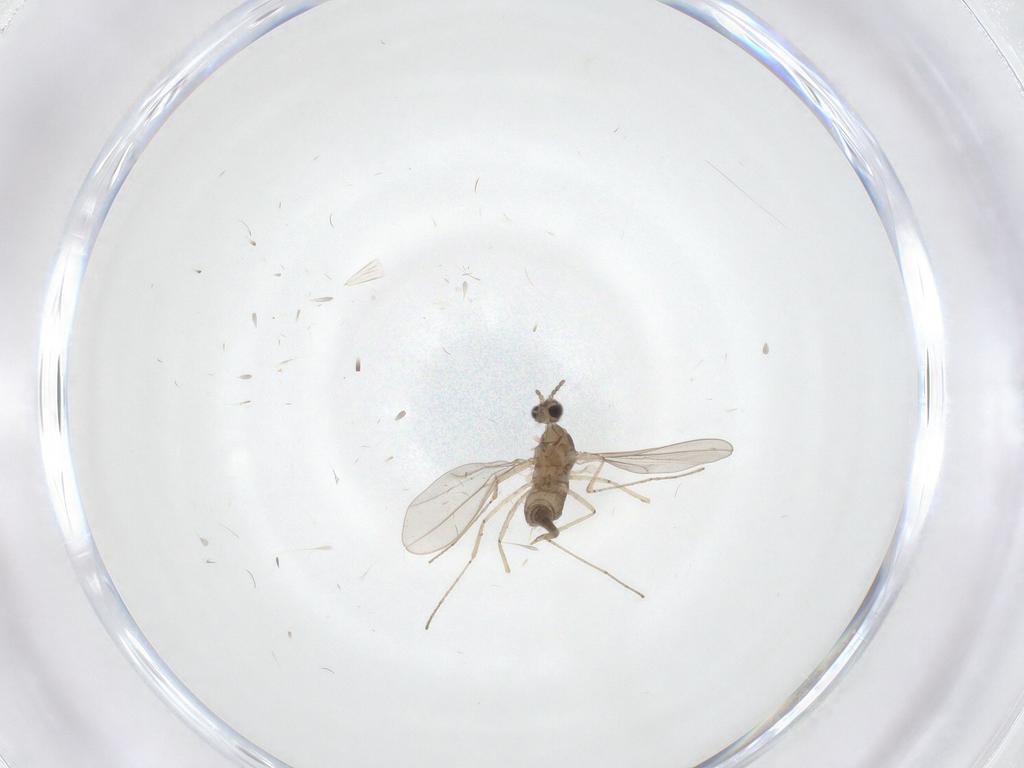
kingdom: Animalia
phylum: Arthropoda
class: Insecta
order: Diptera
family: Cecidomyiidae
